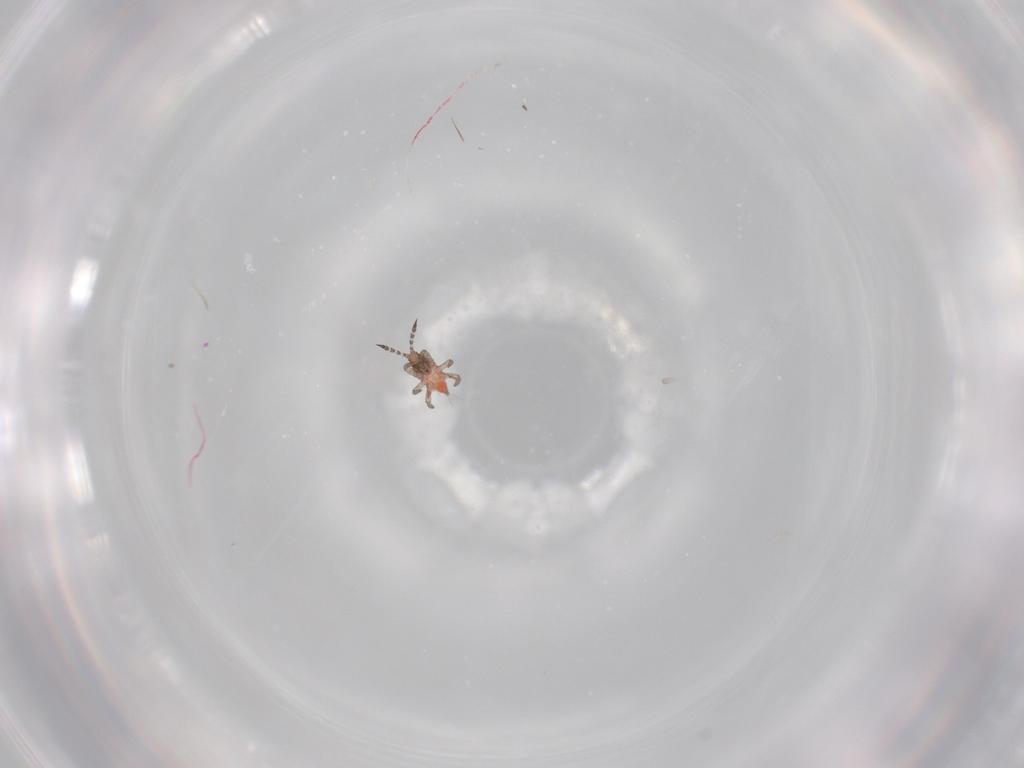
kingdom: Animalia
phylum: Arthropoda
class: Insecta
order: Thysanoptera
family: Phlaeothripidae
